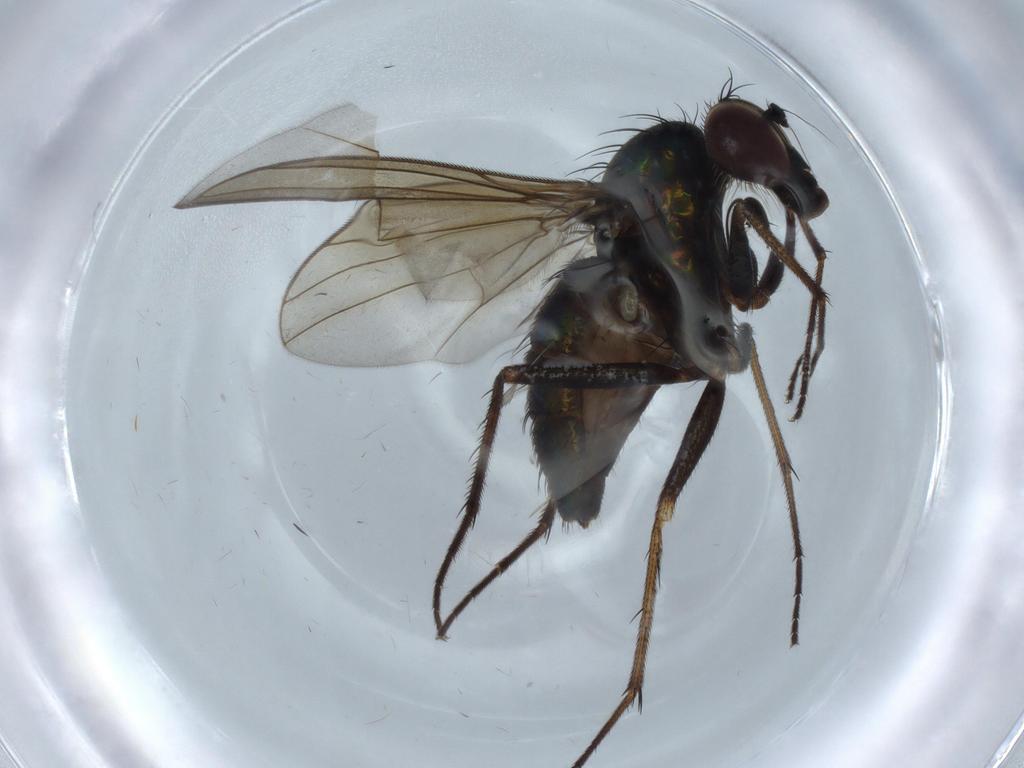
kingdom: Animalia
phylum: Arthropoda
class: Insecta
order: Diptera
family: Dolichopodidae
